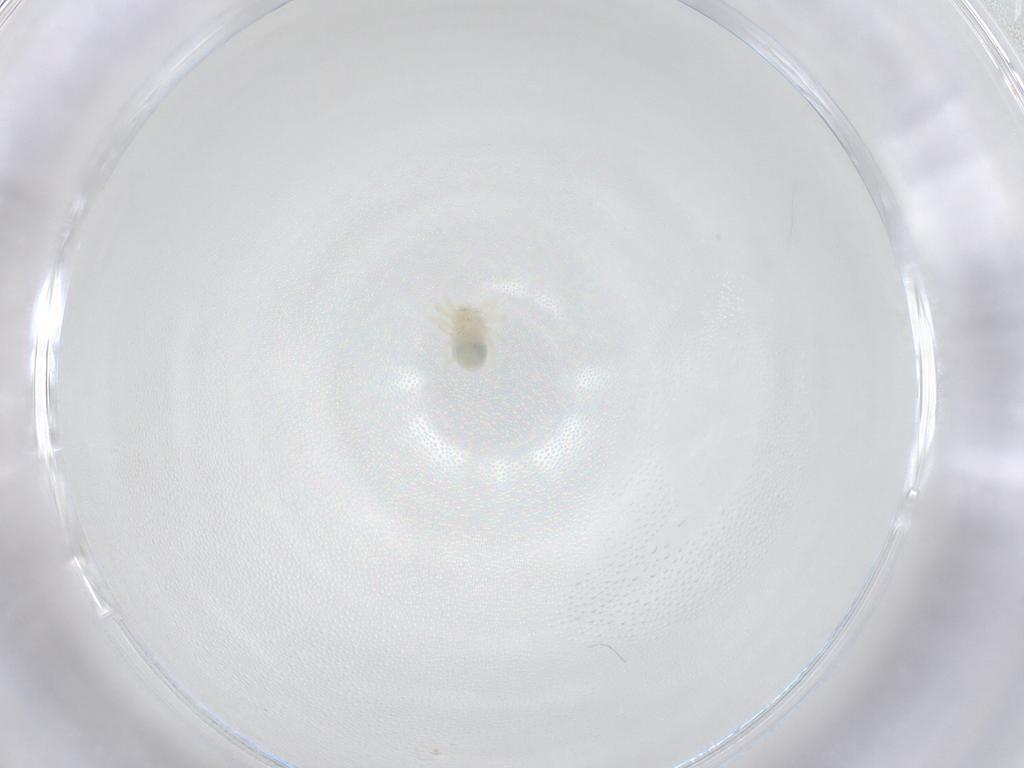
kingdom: Animalia
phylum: Arthropoda
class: Arachnida
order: Trombidiformes
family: Anystidae
